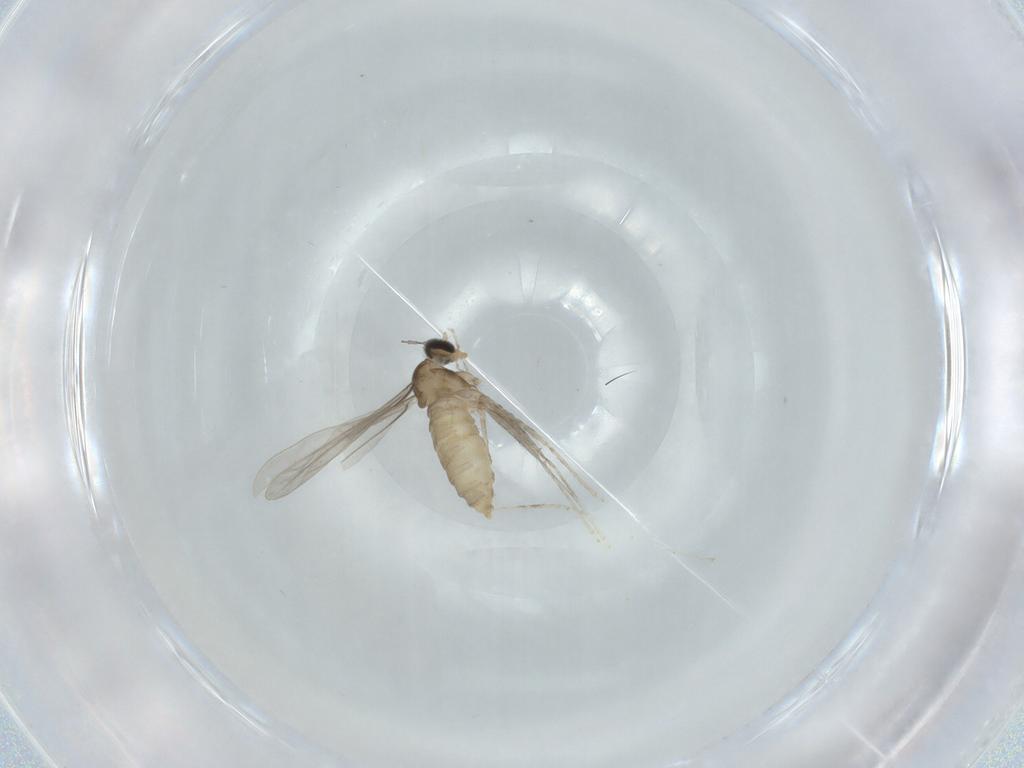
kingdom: Animalia
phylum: Arthropoda
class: Insecta
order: Diptera
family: Cecidomyiidae
